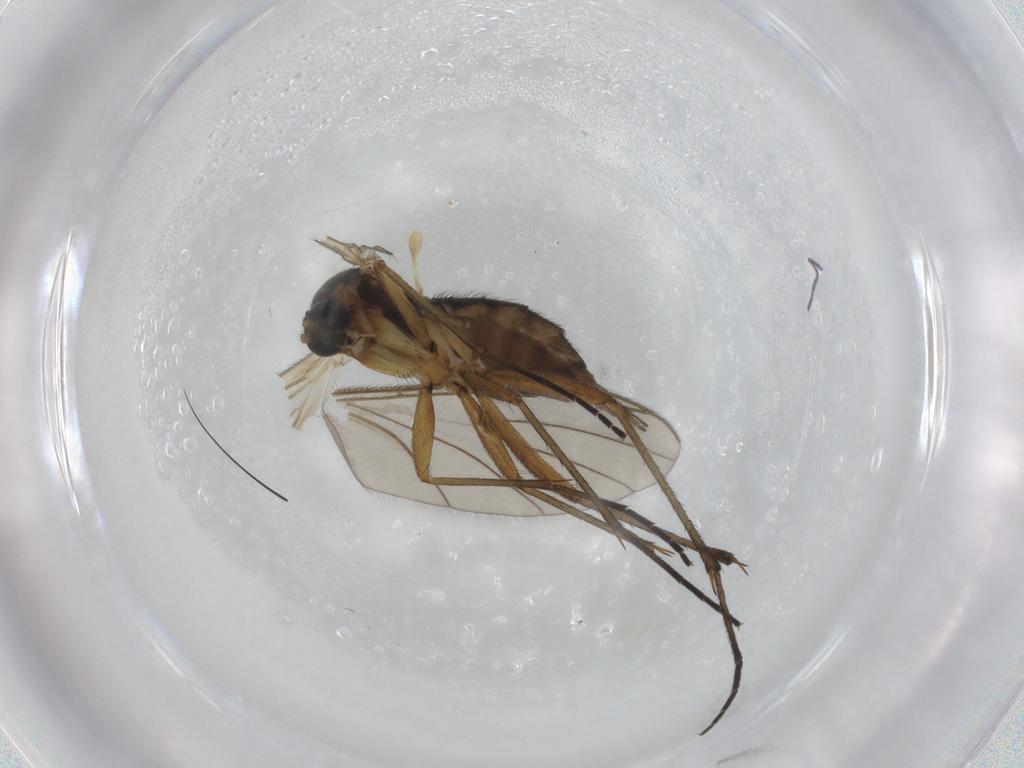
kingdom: Animalia
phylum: Arthropoda
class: Insecta
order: Diptera
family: Sciaridae
